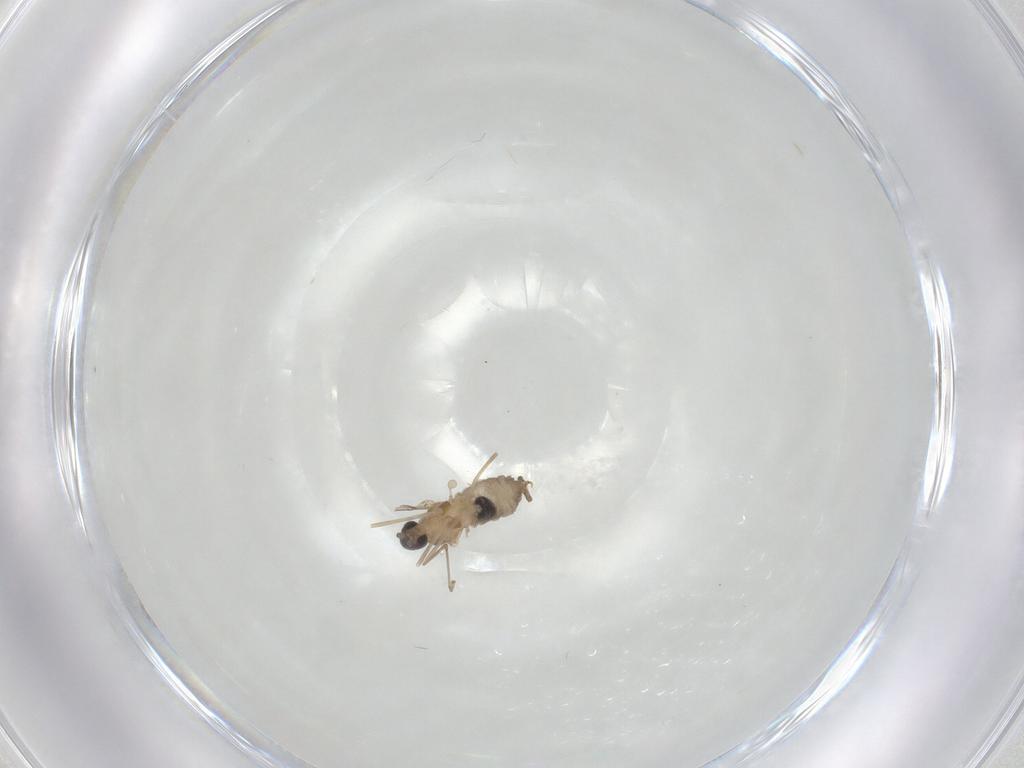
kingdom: Animalia
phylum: Arthropoda
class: Insecta
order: Diptera
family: Cecidomyiidae
